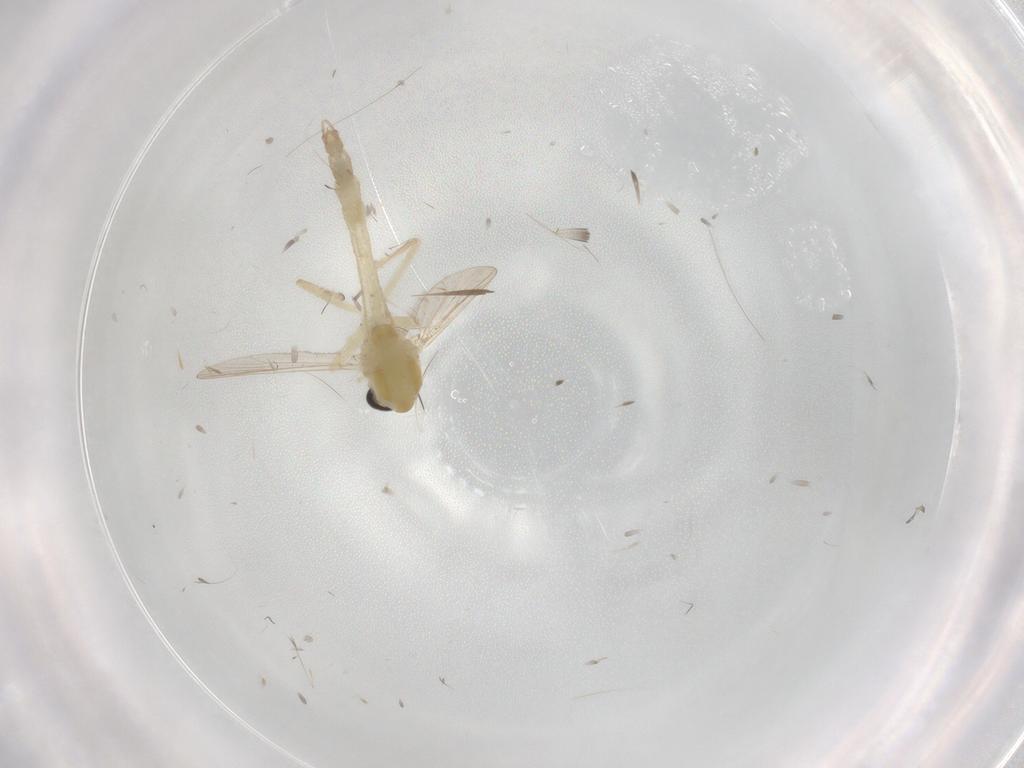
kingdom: Animalia
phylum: Arthropoda
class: Insecta
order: Diptera
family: Chironomidae
